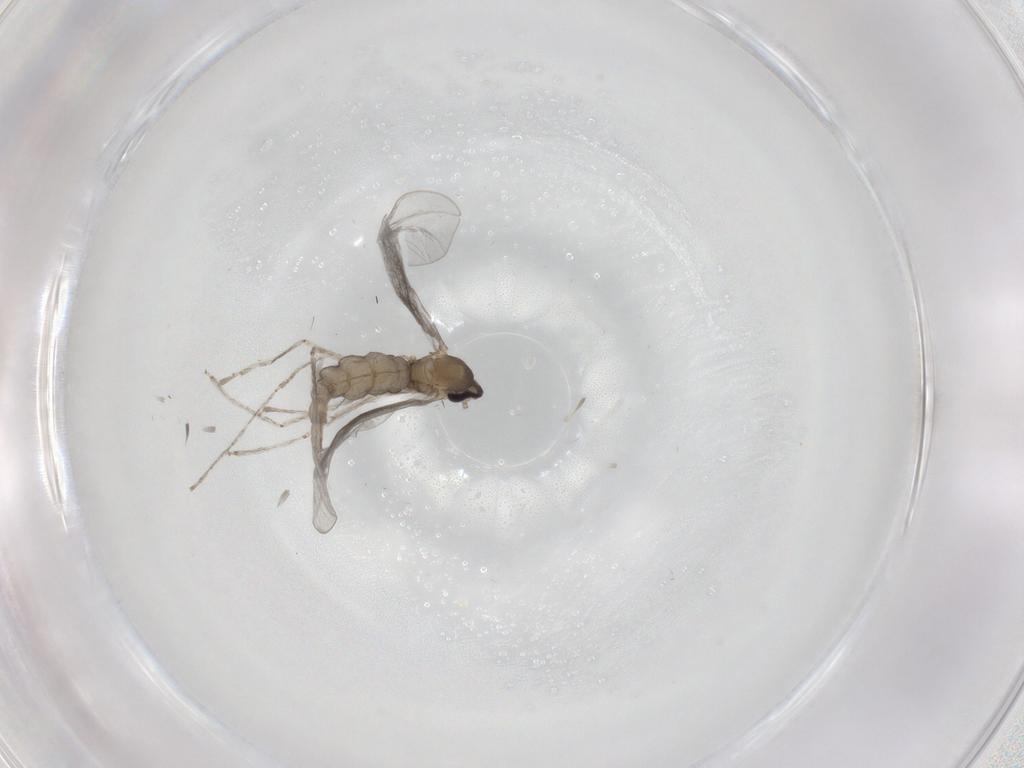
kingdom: Animalia
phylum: Arthropoda
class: Insecta
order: Diptera
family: Cecidomyiidae
